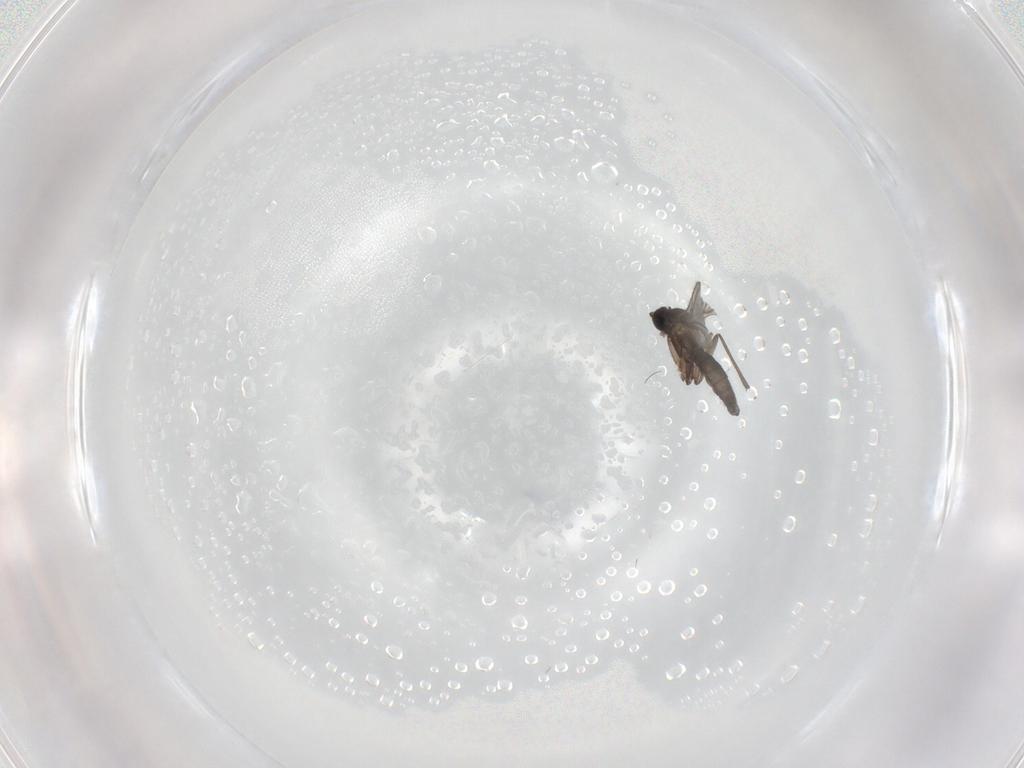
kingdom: Animalia
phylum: Arthropoda
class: Insecta
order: Diptera
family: Sciaridae
